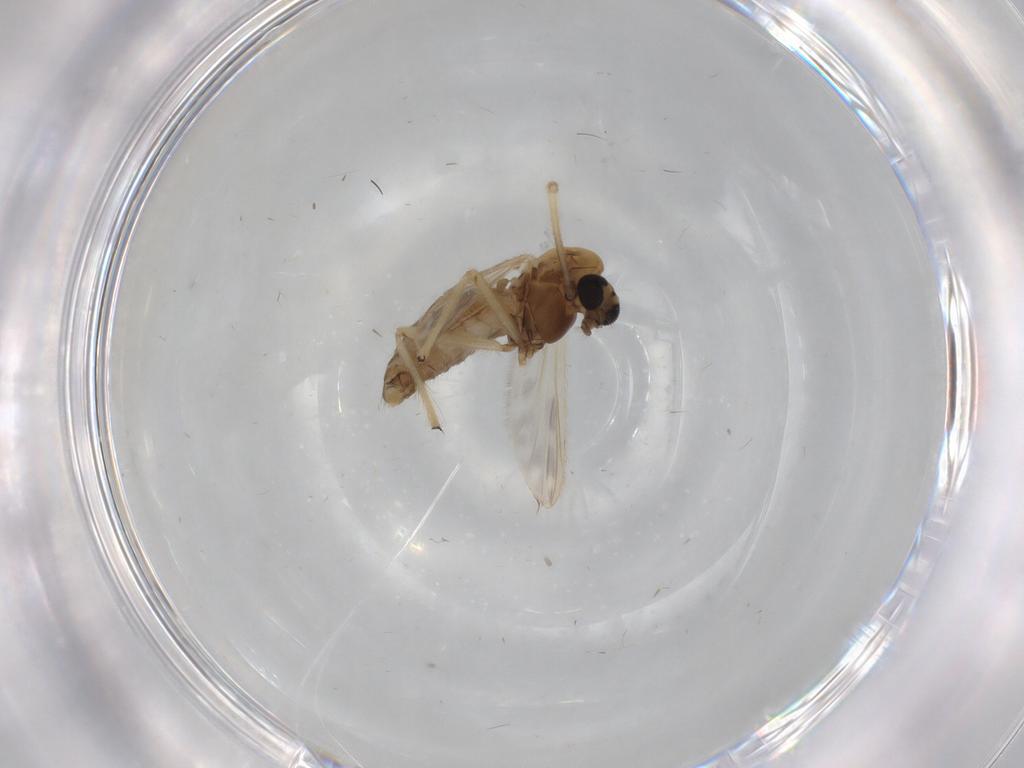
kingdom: Animalia
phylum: Arthropoda
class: Insecta
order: Diptera
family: Chironomidae
